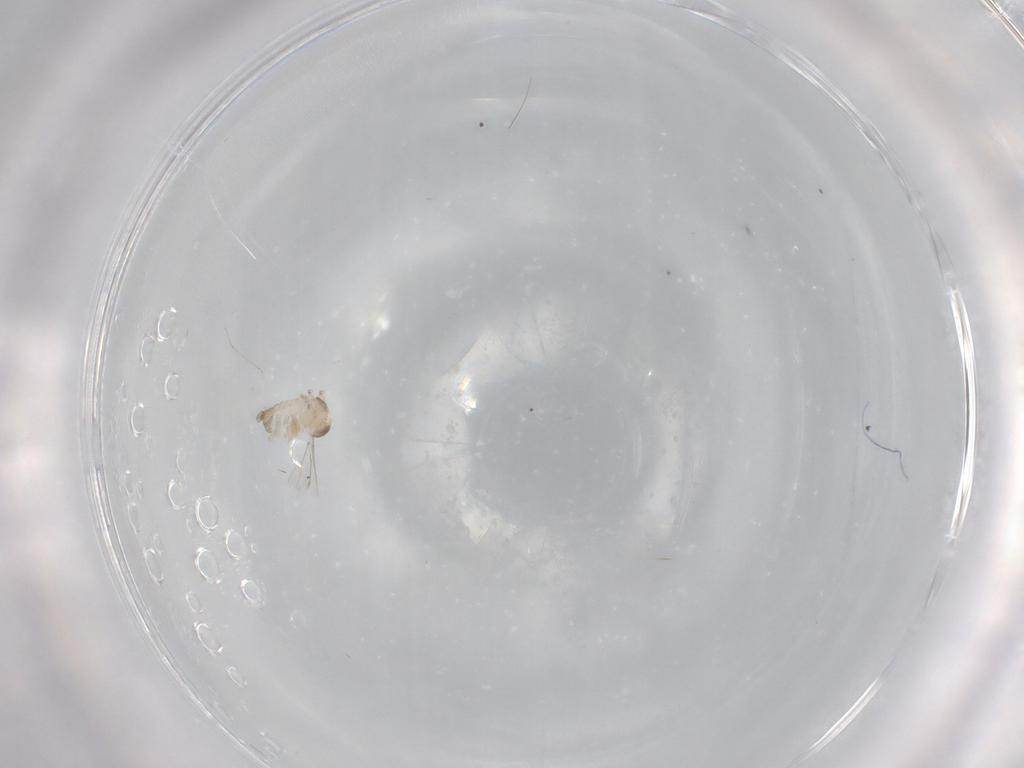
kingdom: Animalia
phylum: Arthropoda
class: Insecta
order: Diptera
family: Cecidomyiidae
